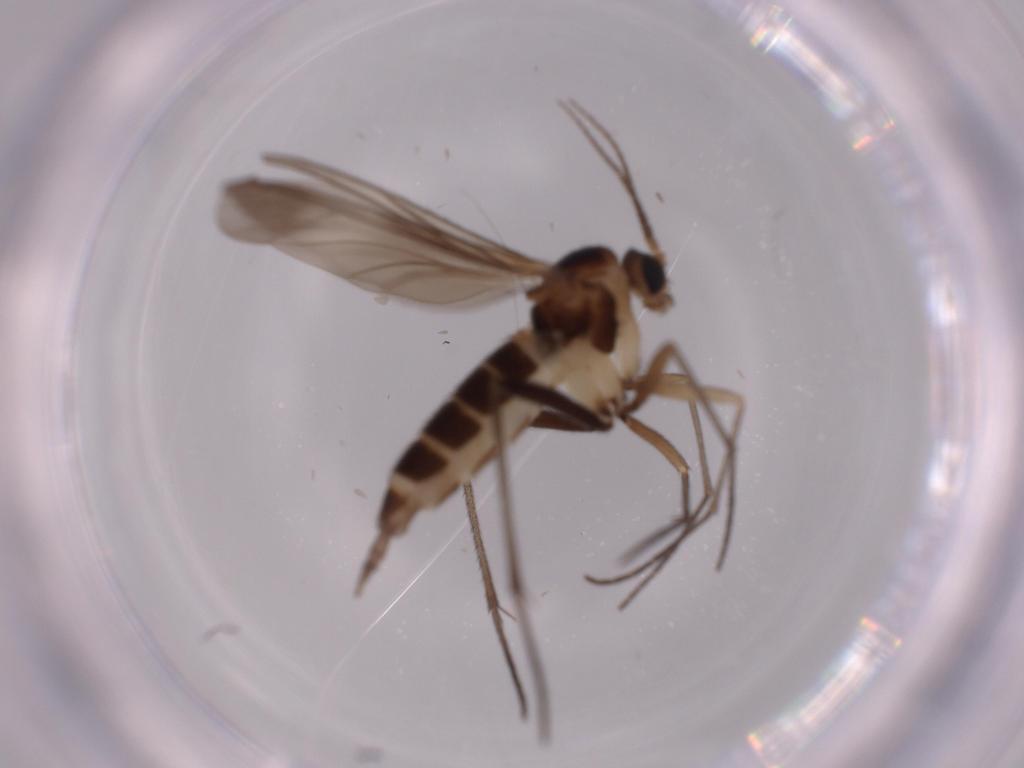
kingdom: Animalia
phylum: Arthropoda
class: Insecta
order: Diptera
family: Sciaridae
